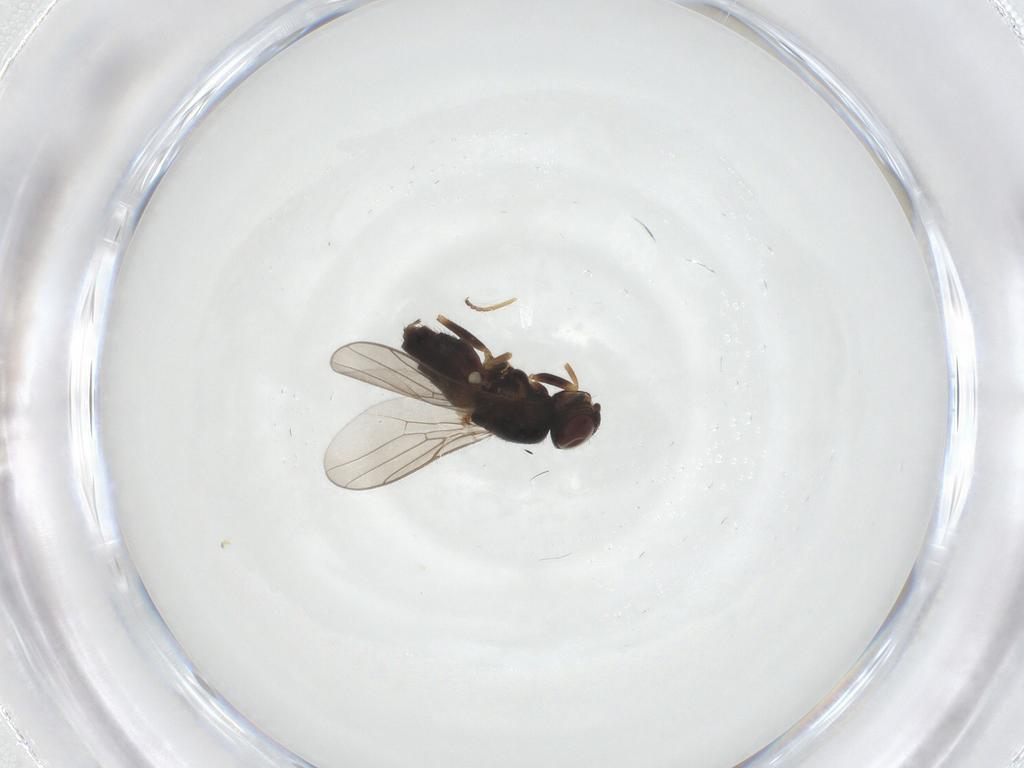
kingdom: Animalia
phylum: Arthropoda
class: Insecta
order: Diptera
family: Chloropidae
